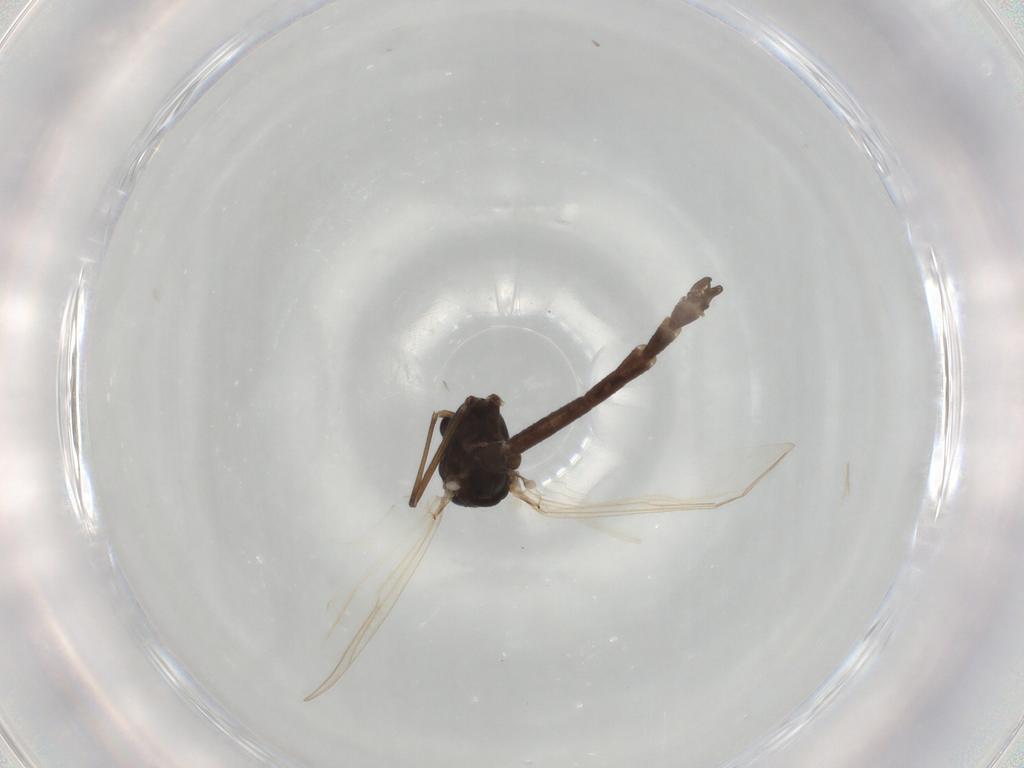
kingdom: Animalia
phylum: Arthropoda
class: Insecta
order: Diptera
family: Chironomidae
